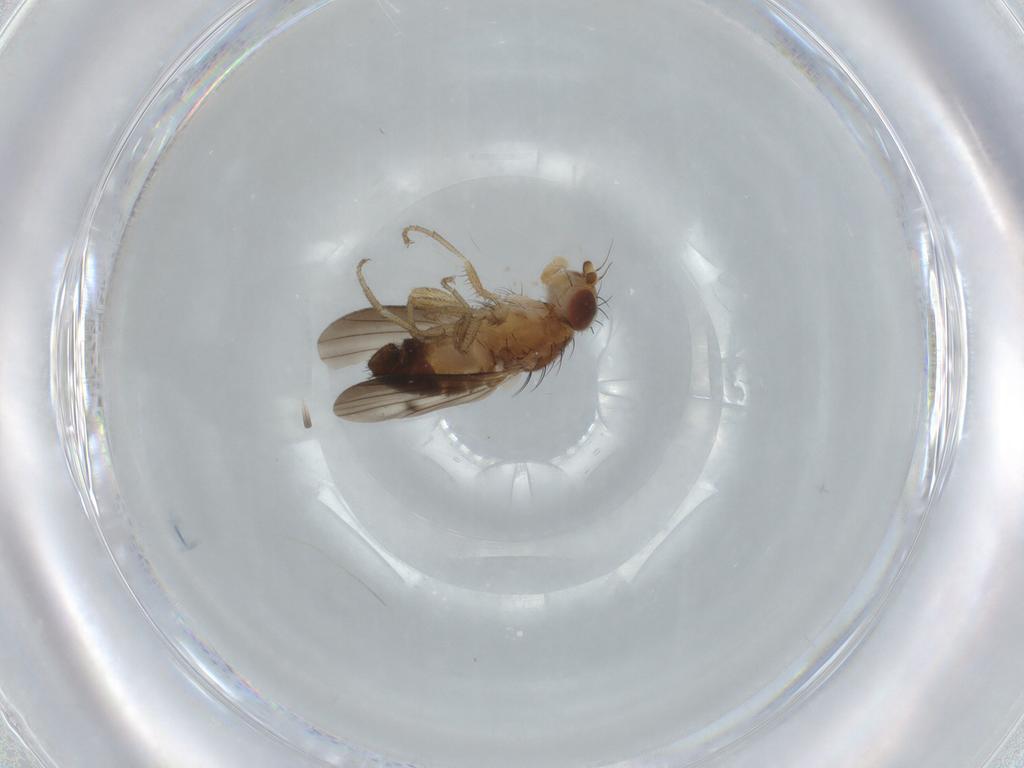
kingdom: Animalia
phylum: Arthropoda
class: Insecta
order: Diptera
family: Heleomyzidae
